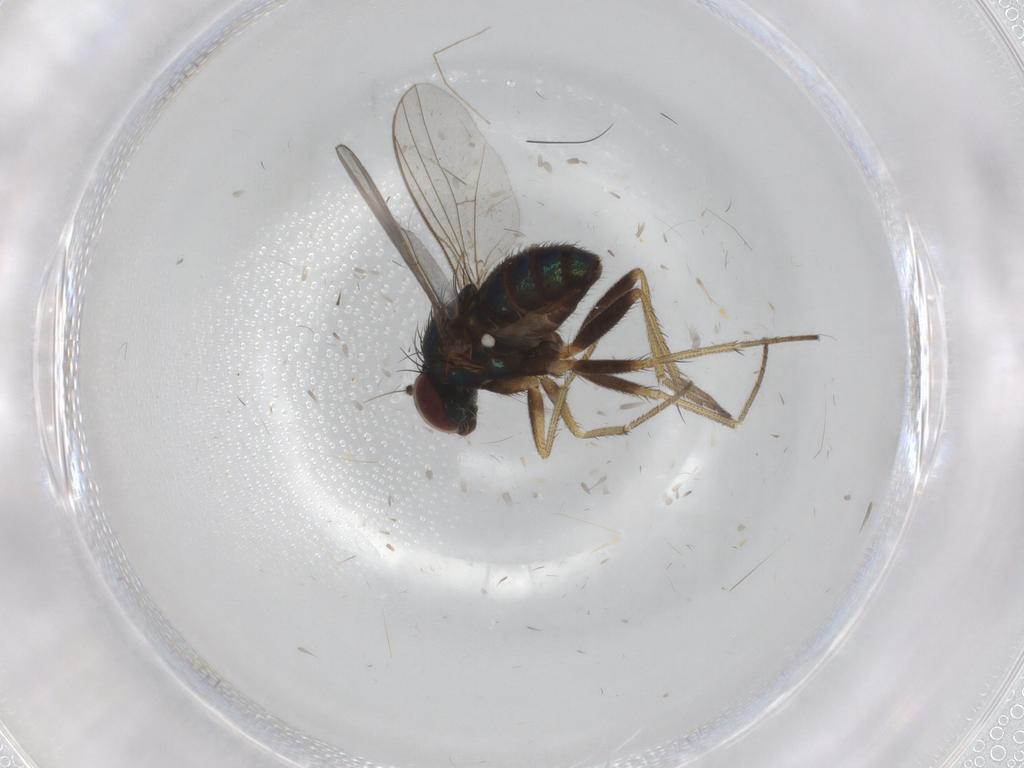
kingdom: Animalia
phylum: Arthropoda
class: Insecta
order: Diptera
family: Chironomidae
